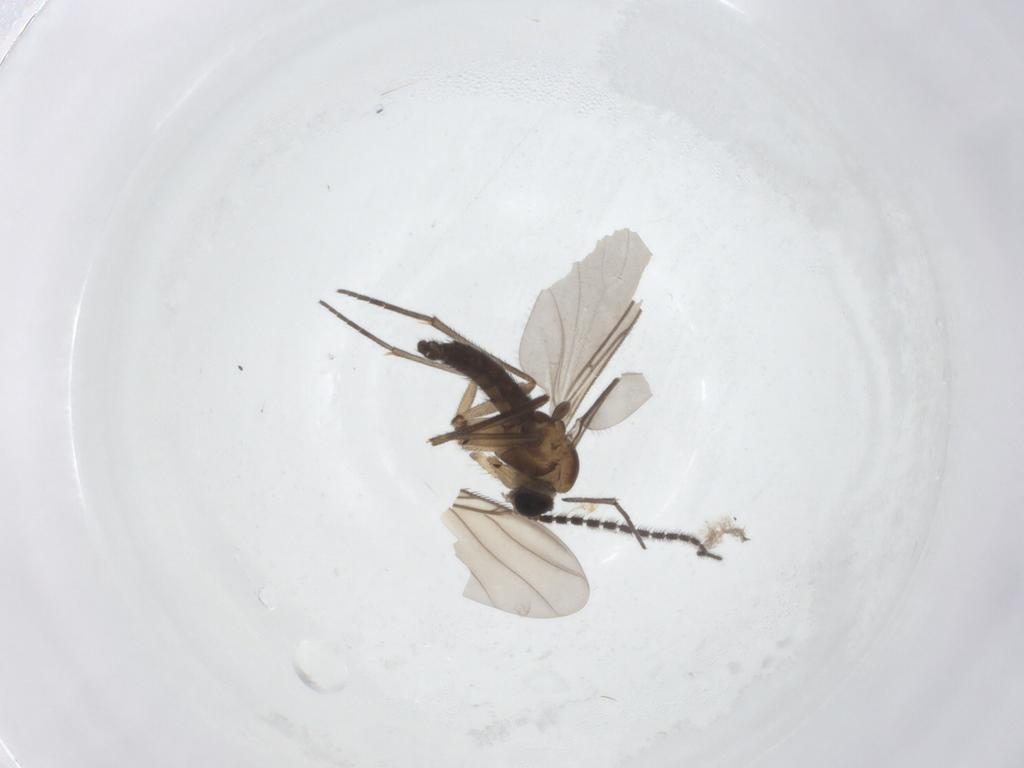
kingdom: Animalia
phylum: Arthropoda
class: Insecta
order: Diptera
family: Sciaridae
